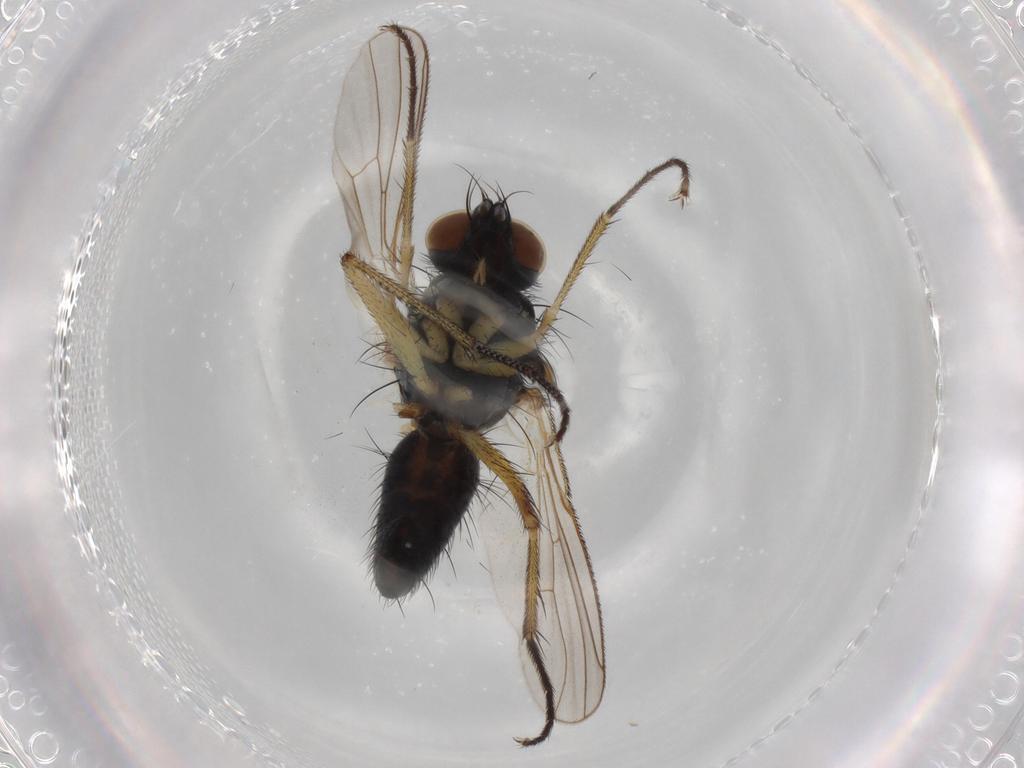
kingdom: Animalia
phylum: Arthropoda
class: Insecta
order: Diptera
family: Muscidae
